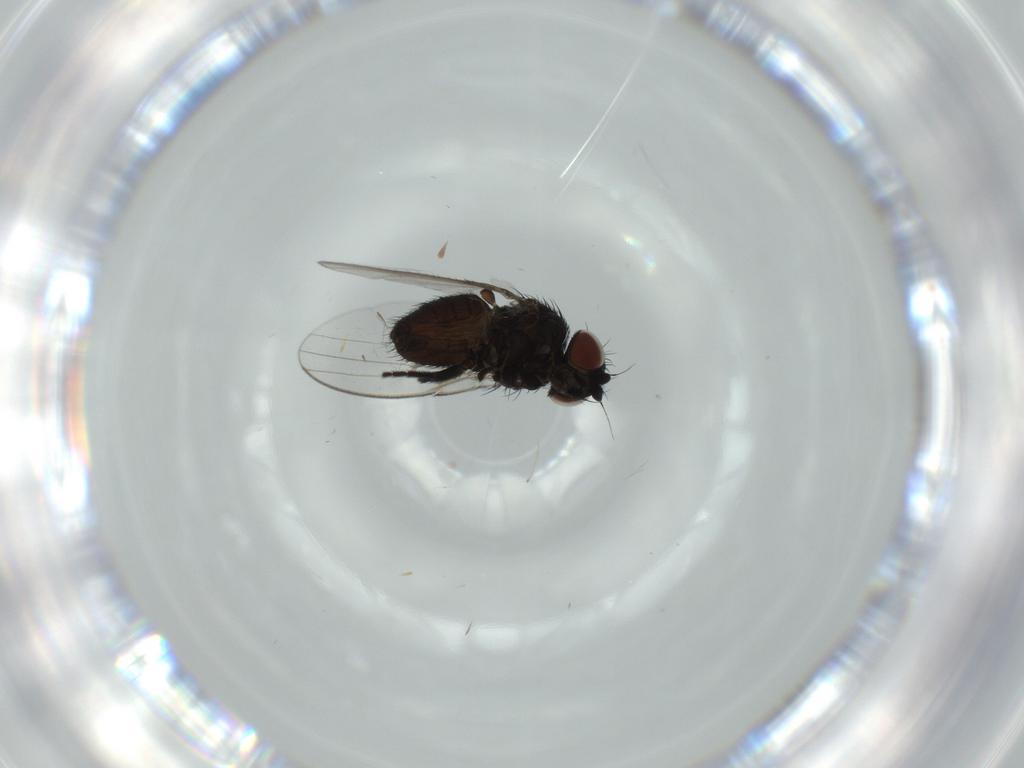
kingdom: Animalia
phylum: Arthropoda
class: Insecta
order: Diptera
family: Milichiidae
